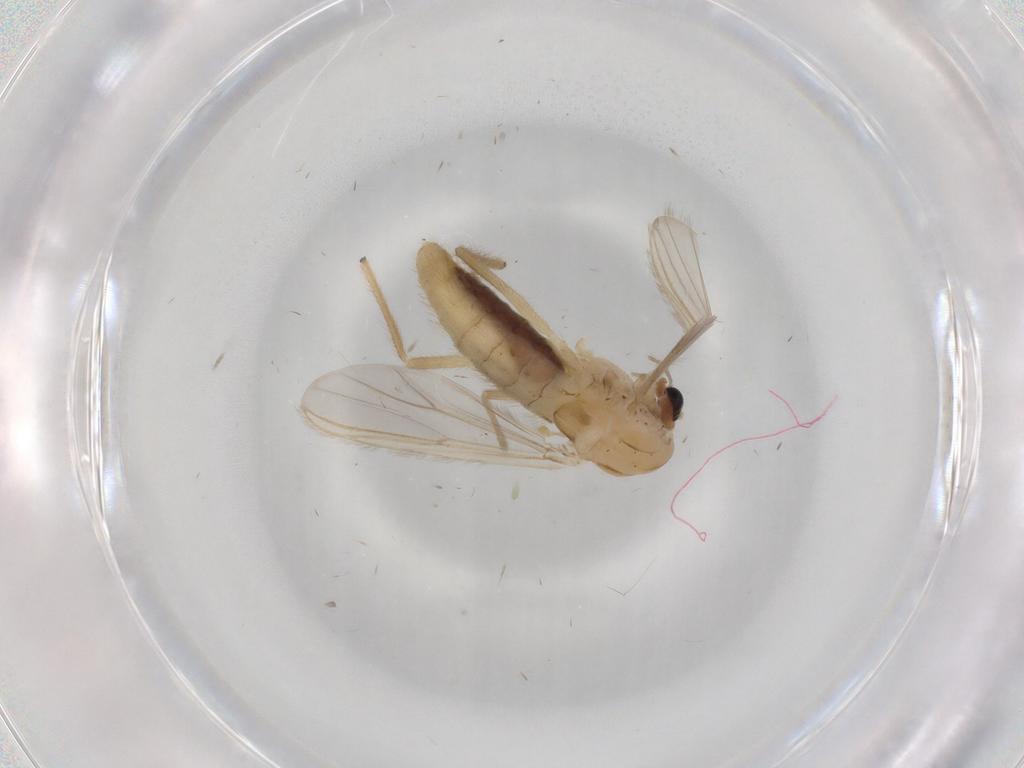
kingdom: Animalia
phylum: Arthropoda
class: Insecta
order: Diptera
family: Chironomidae
